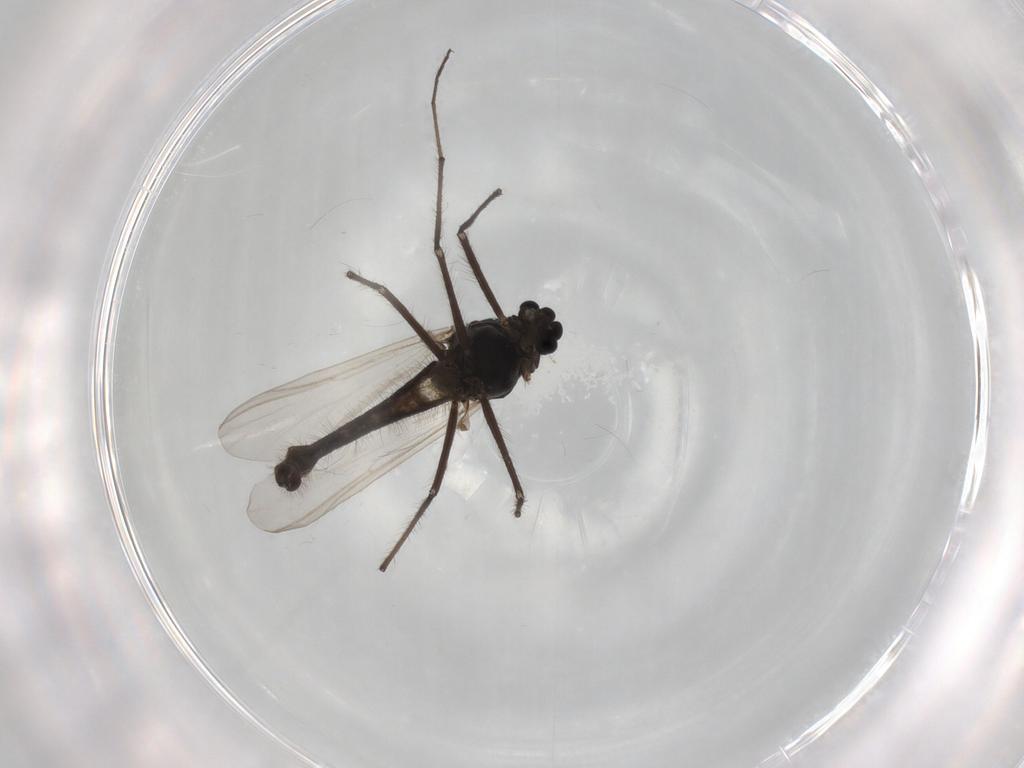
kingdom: Animalia
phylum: Arthropoda
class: Insecta
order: Diptera
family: Chironomidae
